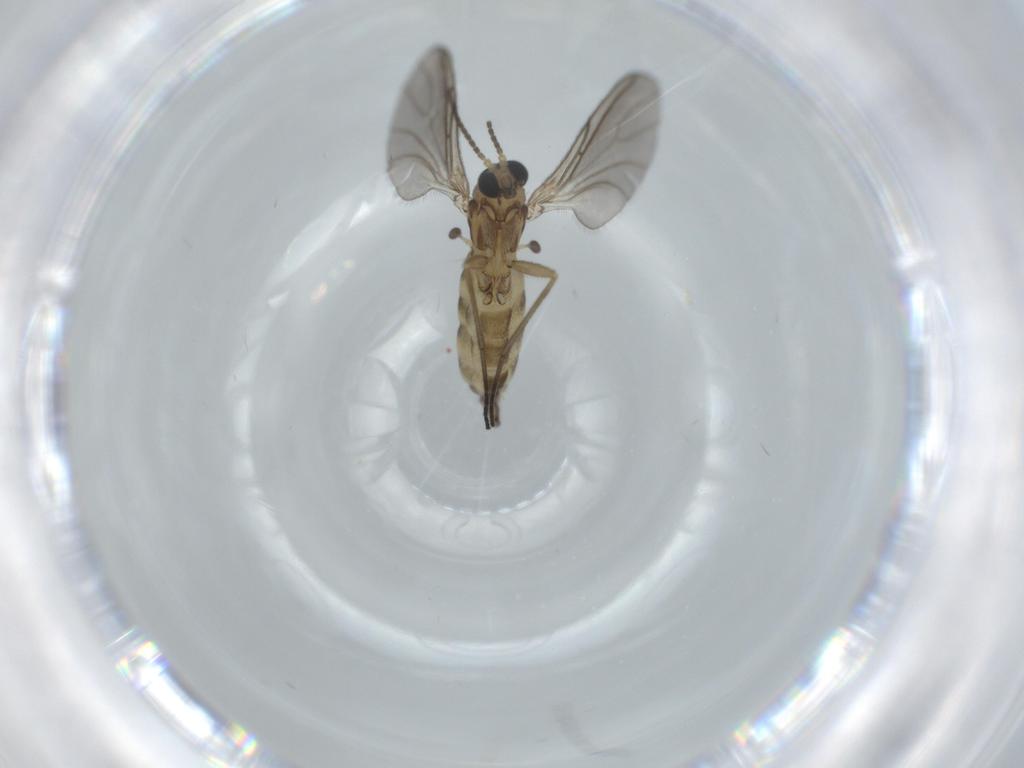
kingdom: Animalia
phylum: Arthropoda
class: Insecta
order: Diptera
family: Sciaridae
